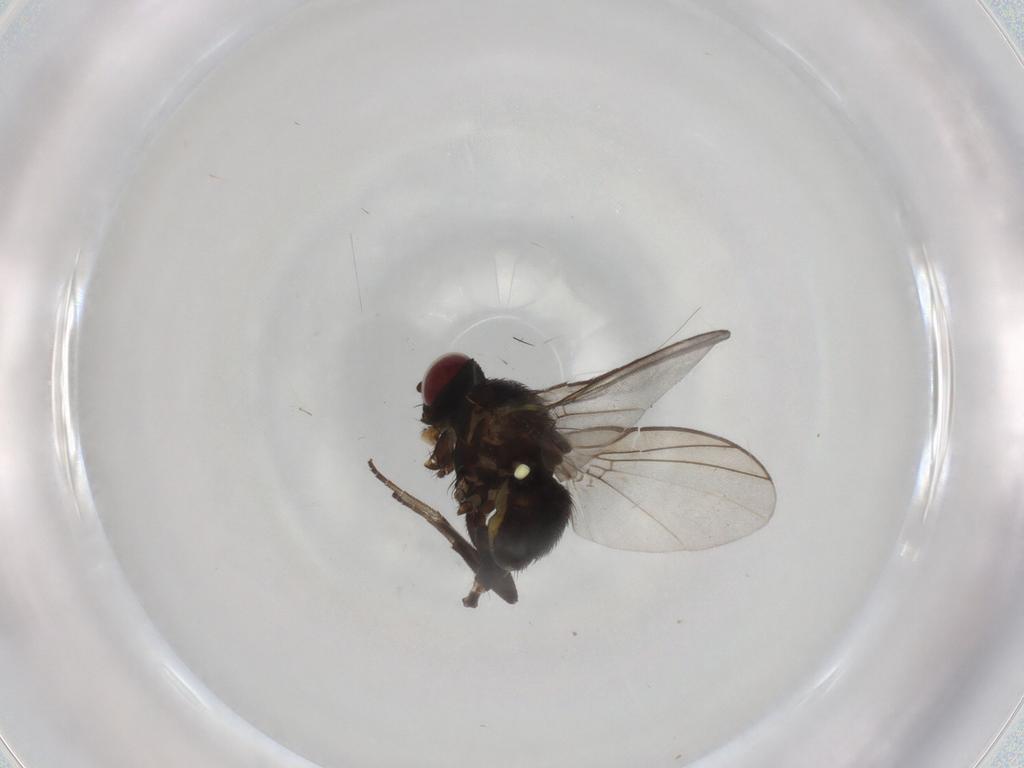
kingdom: Animalia
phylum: Arthropoda
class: Insecta
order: Diptera
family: Agromyzidae
